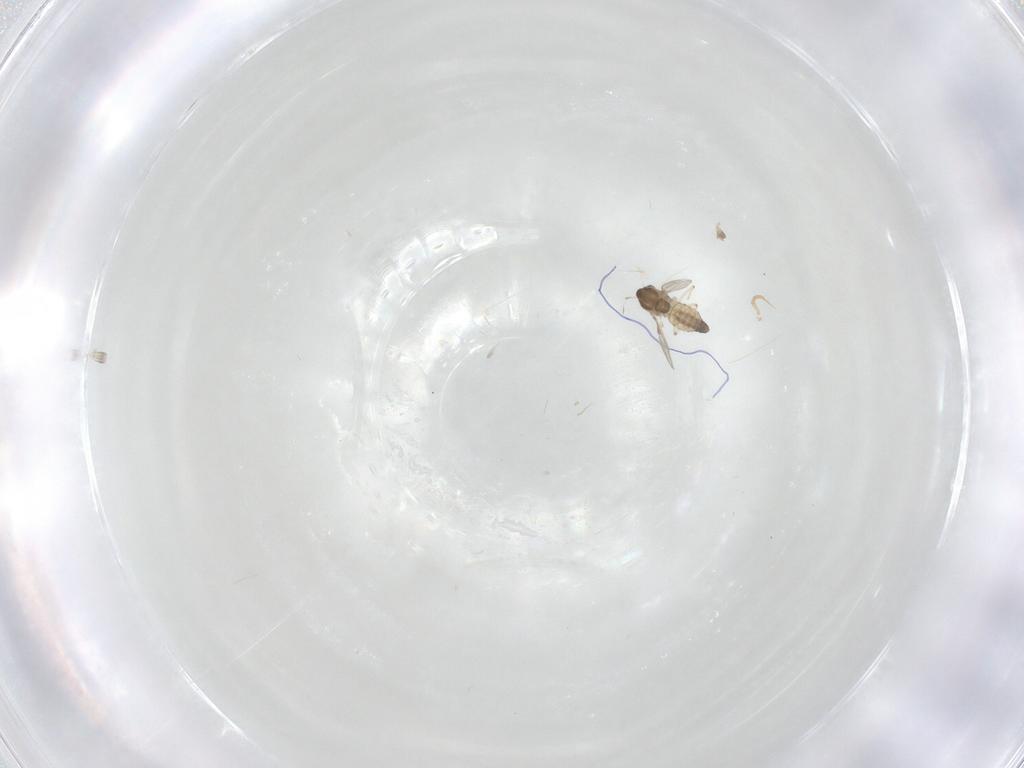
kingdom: Animalia
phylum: Arthropoda
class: Insecta
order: Diptera
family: Chironomidae
